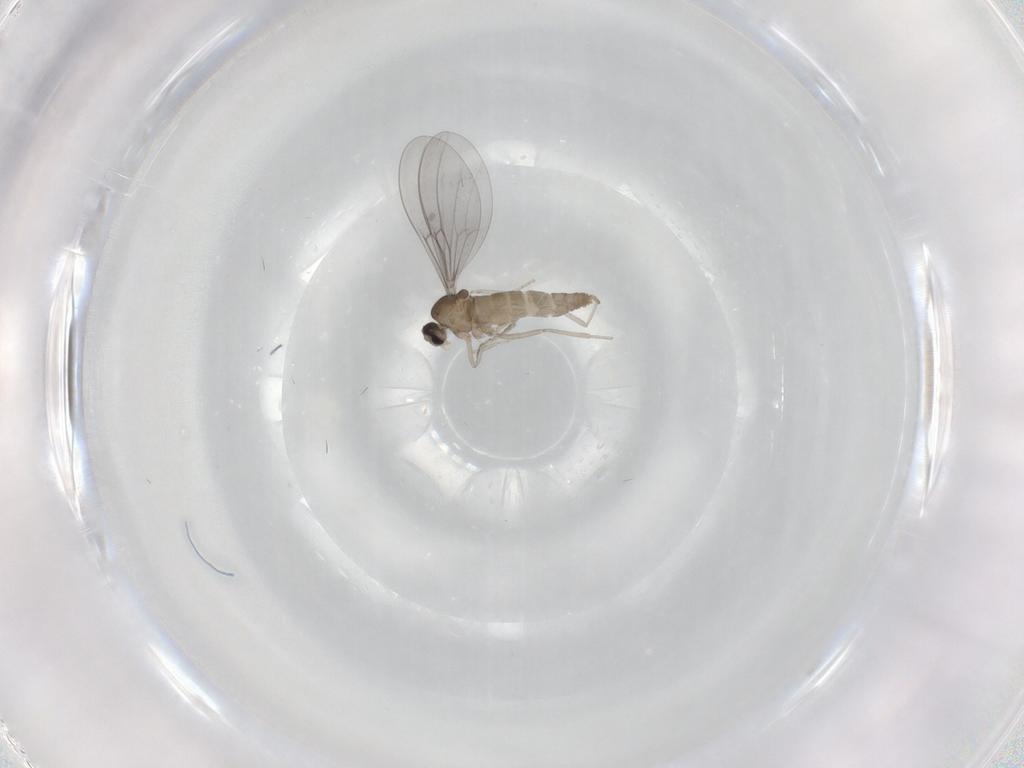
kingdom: Animalia
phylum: Arthropoda
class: Insecta
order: Diptera
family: Cecidomyiidae
